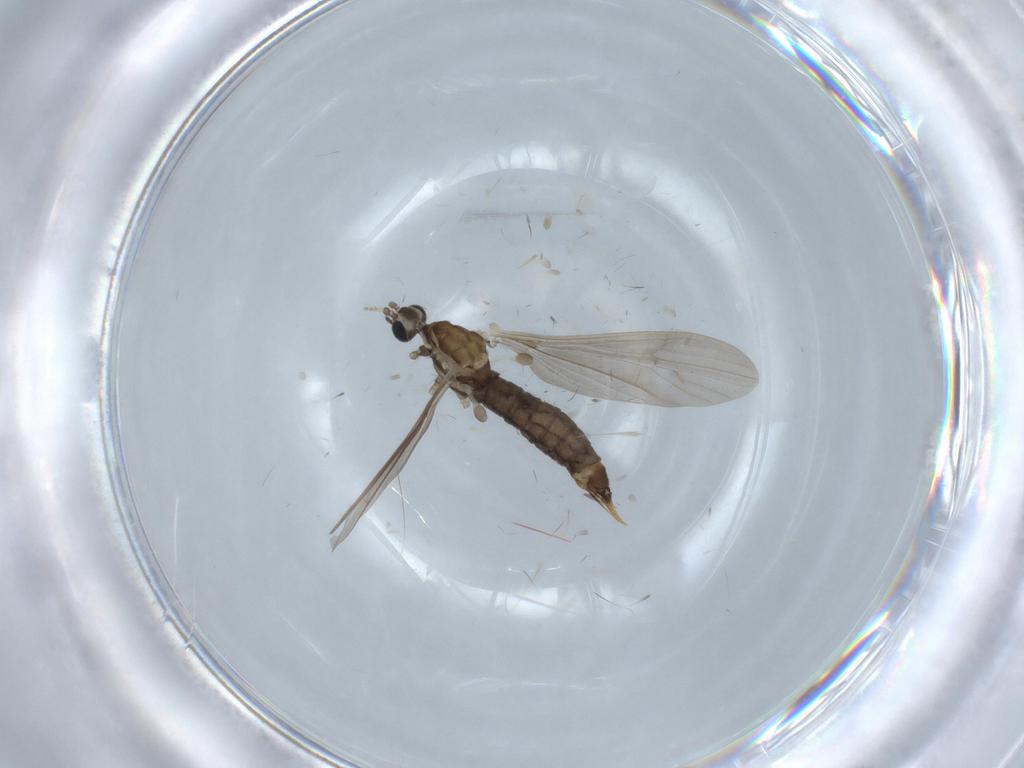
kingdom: Animalia
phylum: Arthropoda
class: Insecta
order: Diptera
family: Limoniidae
